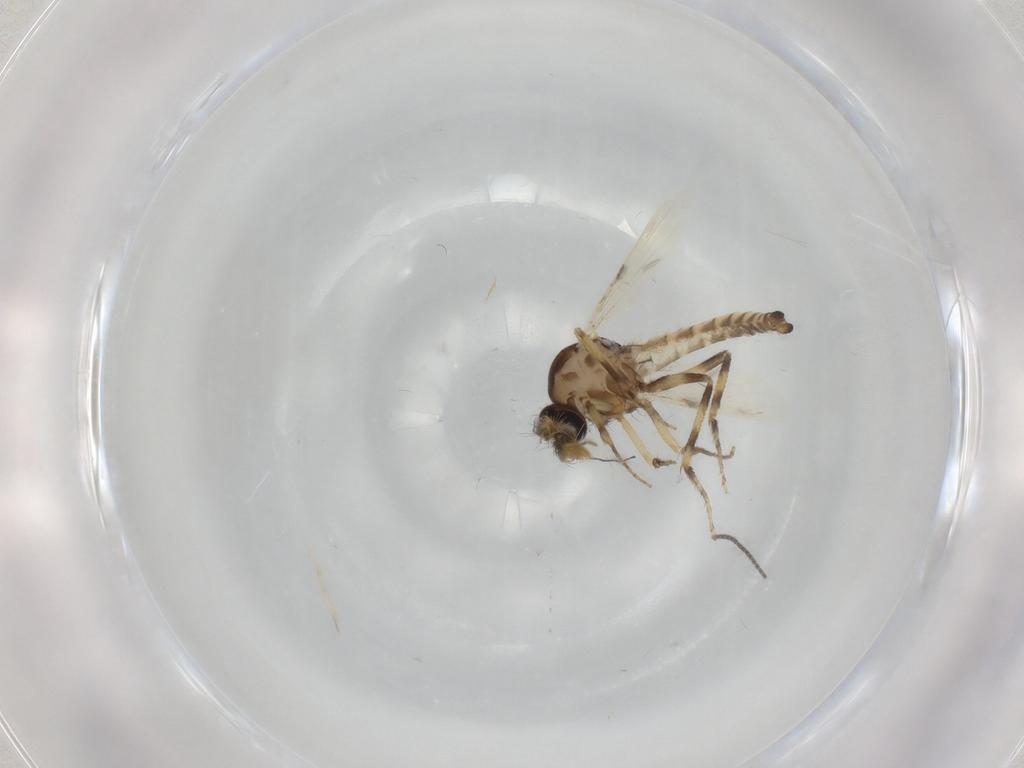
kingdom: Animalia
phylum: Arthropoda
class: Insecta
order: Diptera
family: Ceratopogonidae
